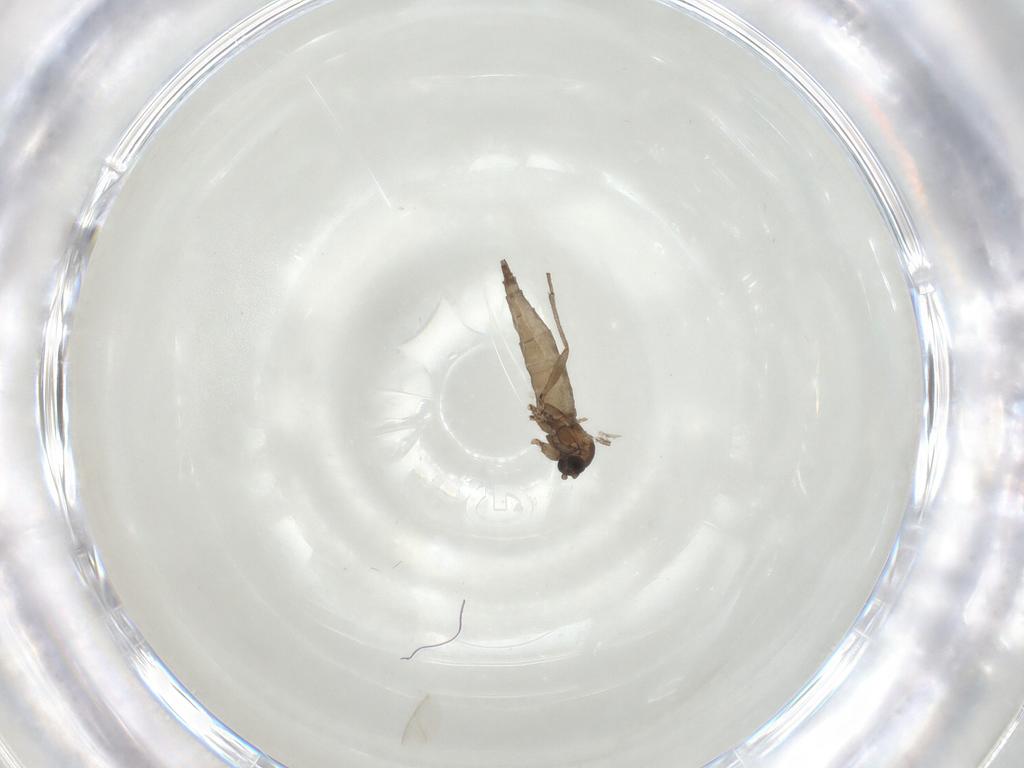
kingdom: Animalia
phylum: Arthropoda
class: Insecta
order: Diptera
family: Sciaridae
